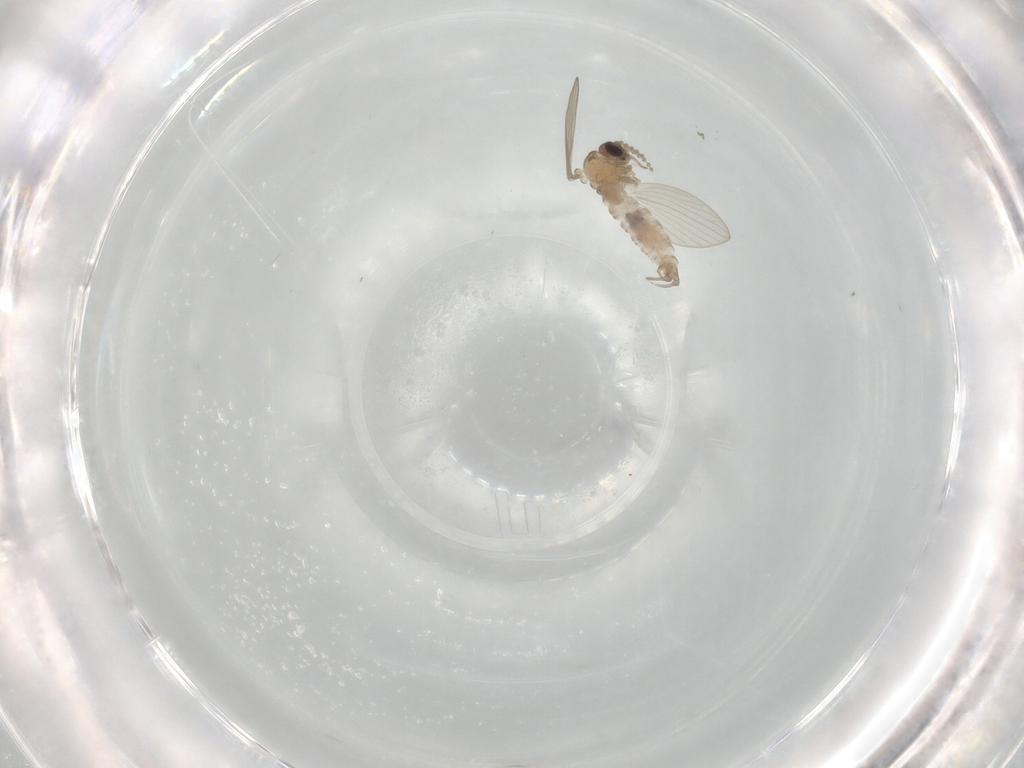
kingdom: Animalia
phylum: Arthropoda
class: Insecta
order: Diptera
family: Psychodidae
